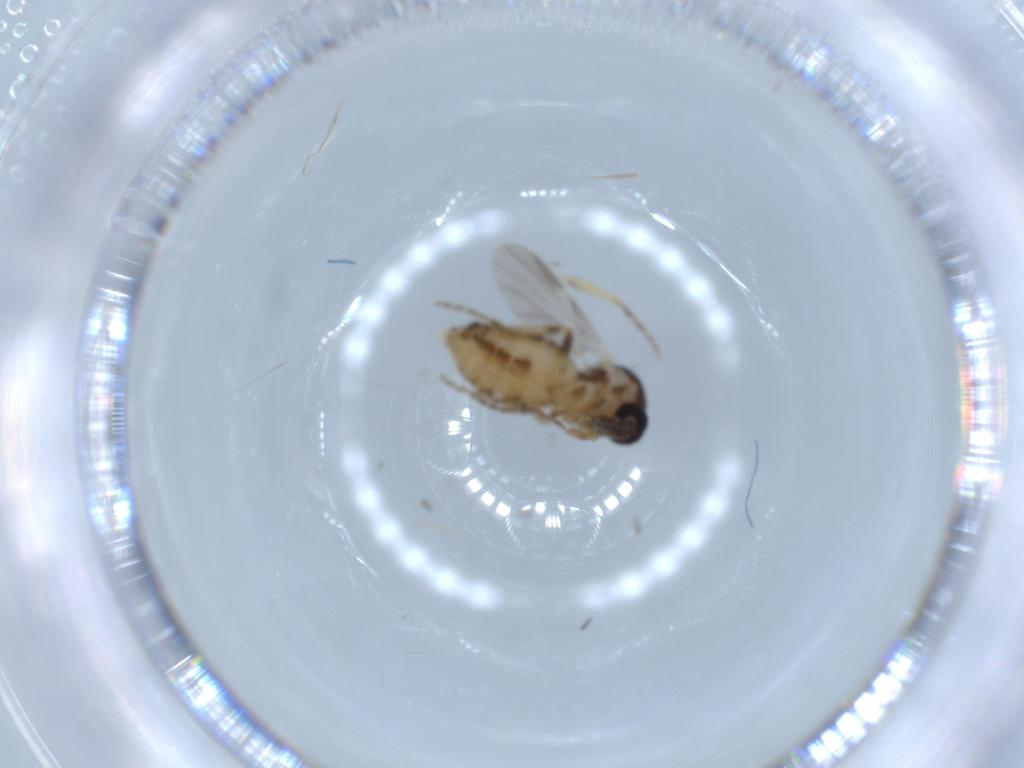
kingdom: Animalia
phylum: Arthropoda
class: Insecta
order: Diptera
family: Ceratopogonidae
